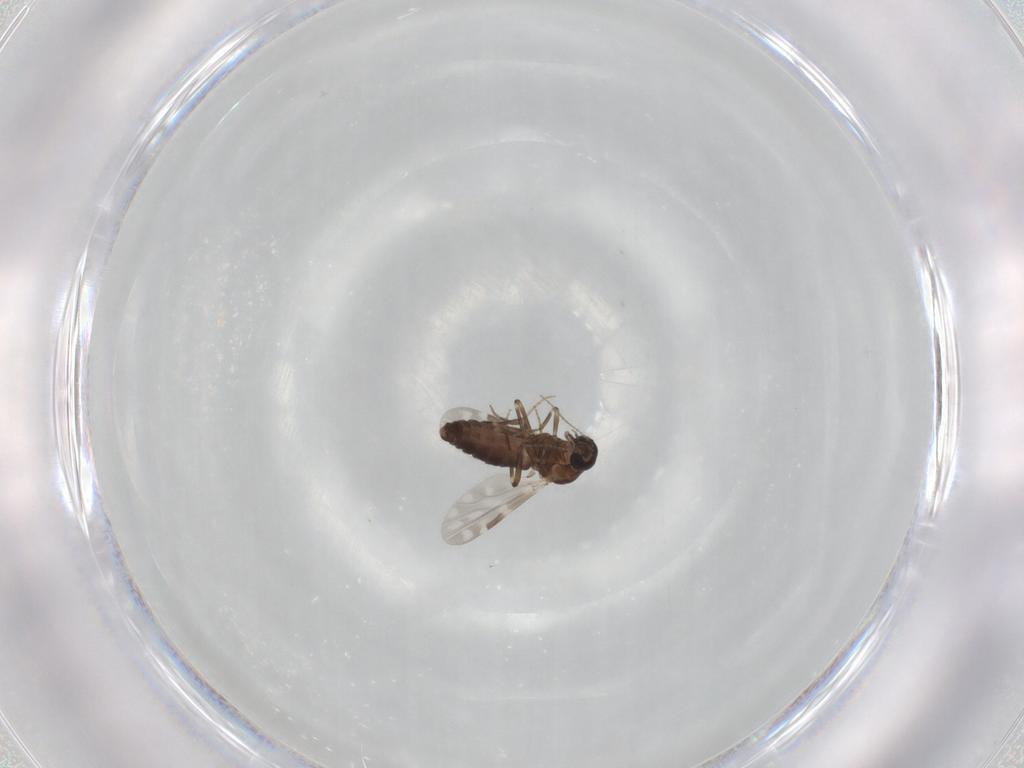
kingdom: Animalia
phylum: Arthropoda
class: Insecta
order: Diptera
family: Ceratopogonidae
